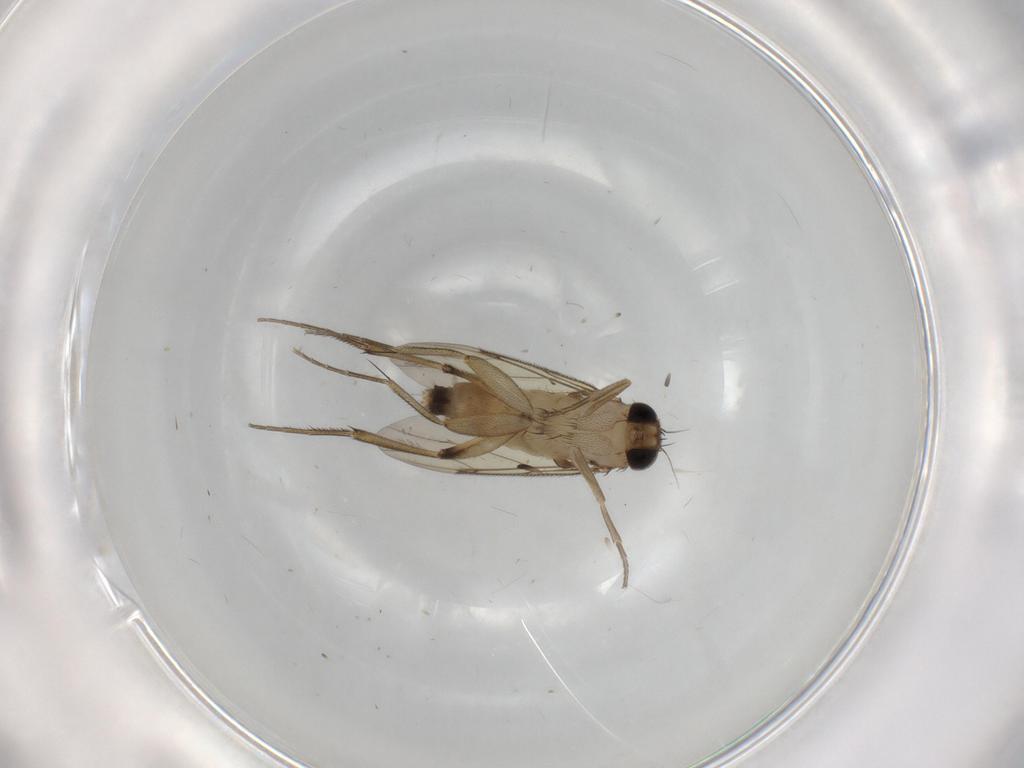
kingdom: Animalia
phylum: Arthropoda
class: Insecta
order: Diptera
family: Phoridae
